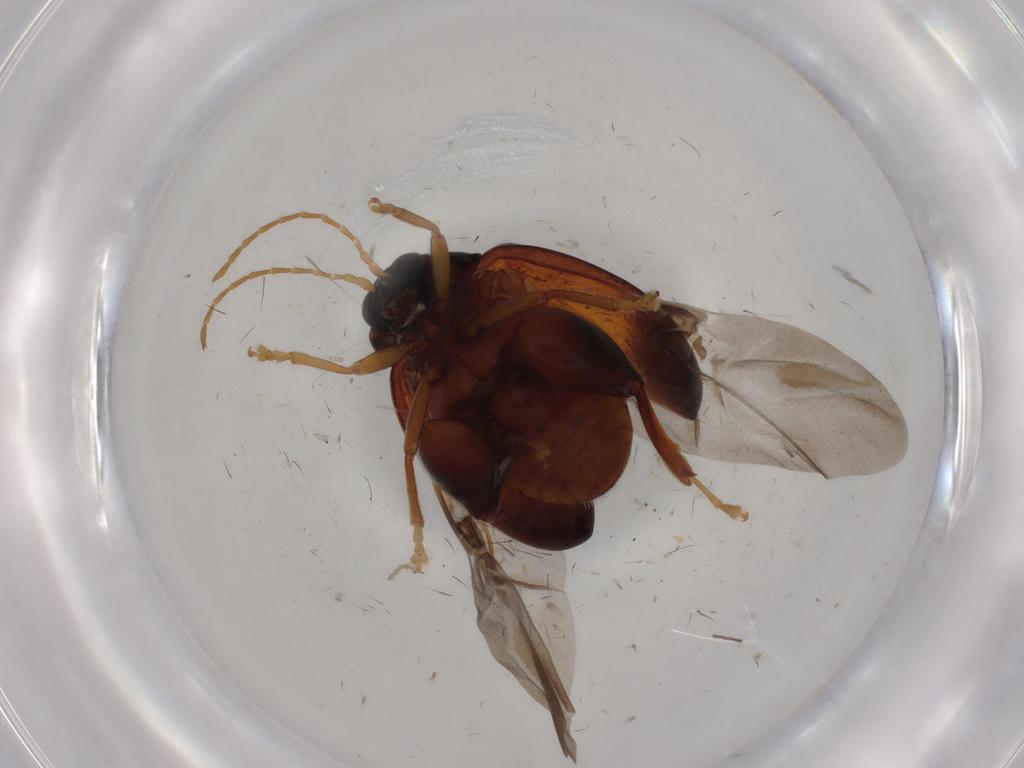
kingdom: Animalia
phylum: Arthropoda
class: Insecta
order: Coleoptera
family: Chrysomelidae
